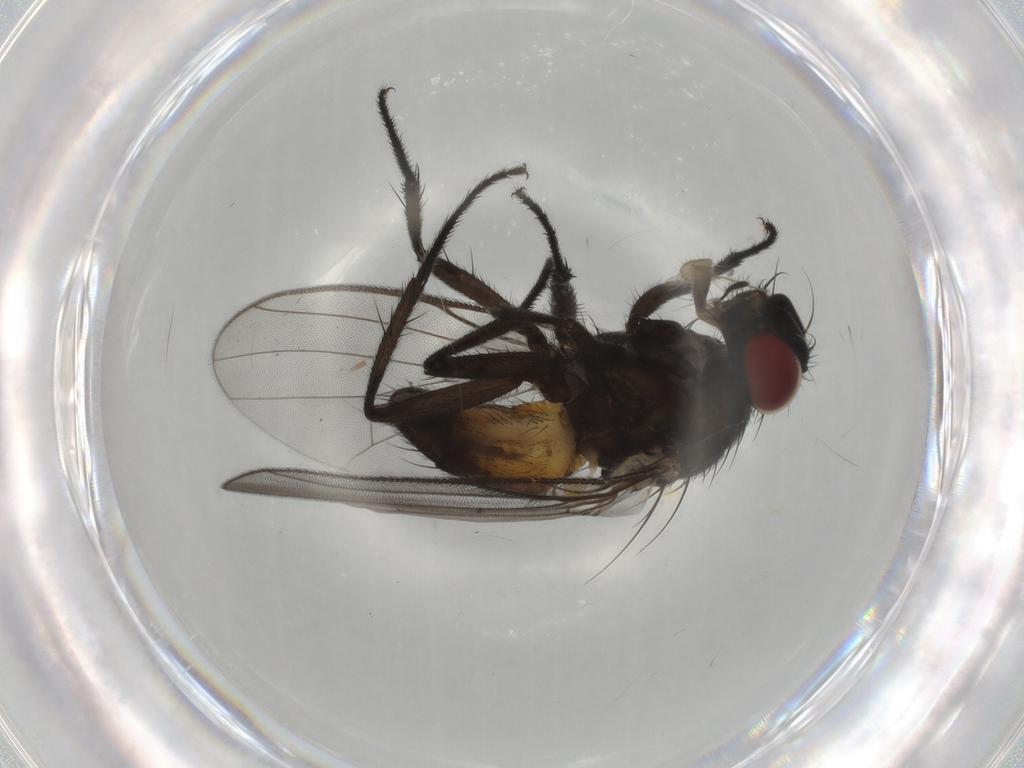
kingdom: Animalia
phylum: Arthropoda
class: Insecta
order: Diptera
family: Fannia
